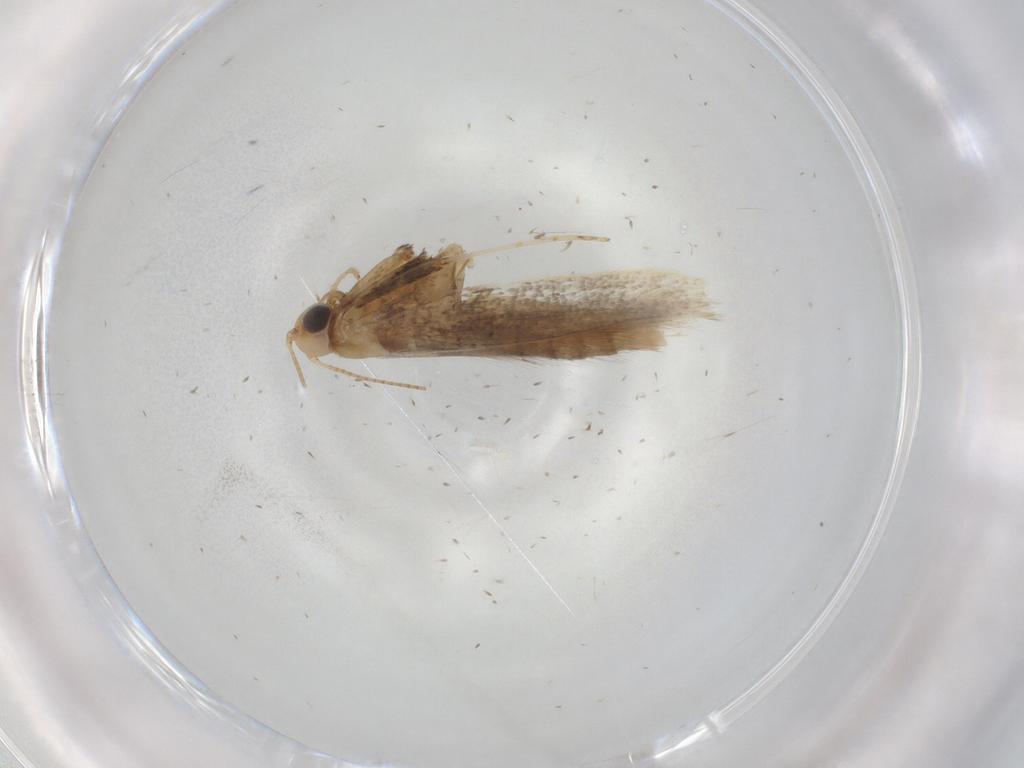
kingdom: Animalia
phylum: Arthropoda
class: Insecta
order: Lepidoptera
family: Gracillariidae
